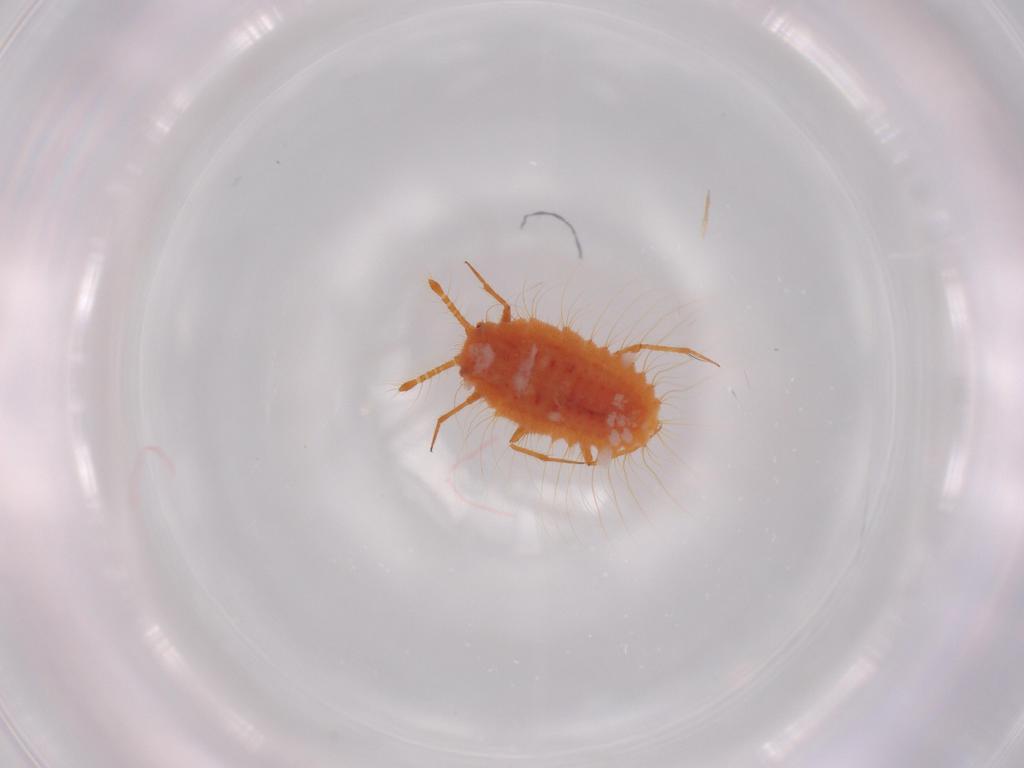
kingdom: Animalia
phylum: Arthropoda
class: Insecta
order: Hemiptera
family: Coccoidea_incertae_sedis
